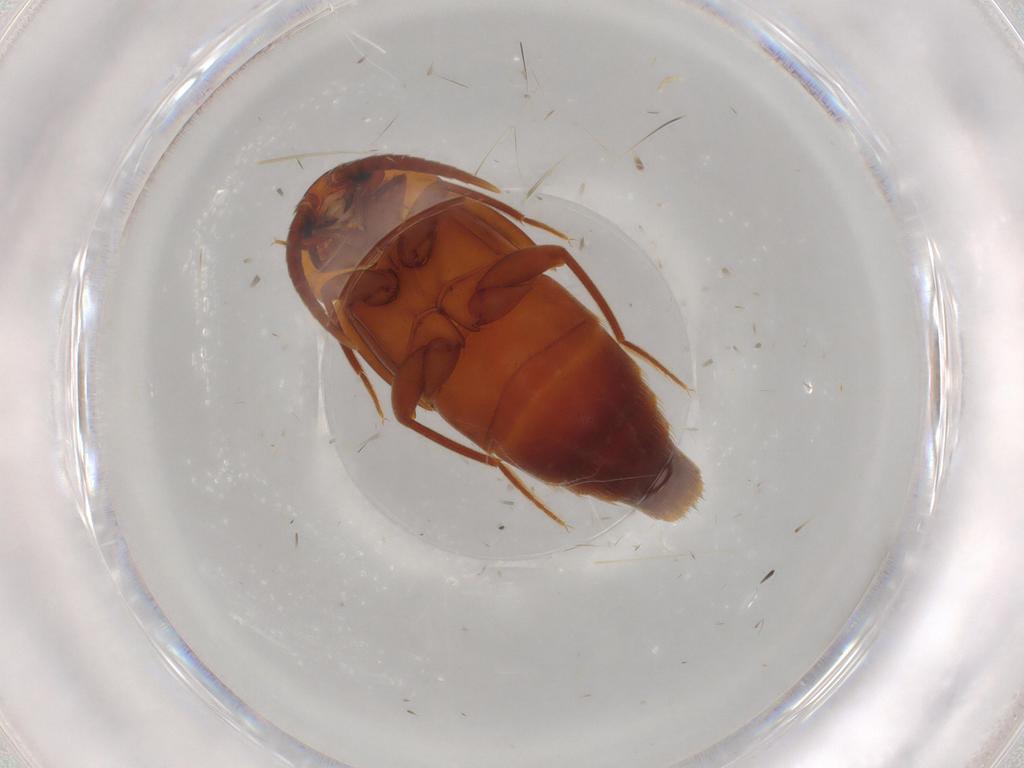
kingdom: Animalia
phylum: Arthropoda
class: Insecta
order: Coleoptera
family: Staphylinidae
